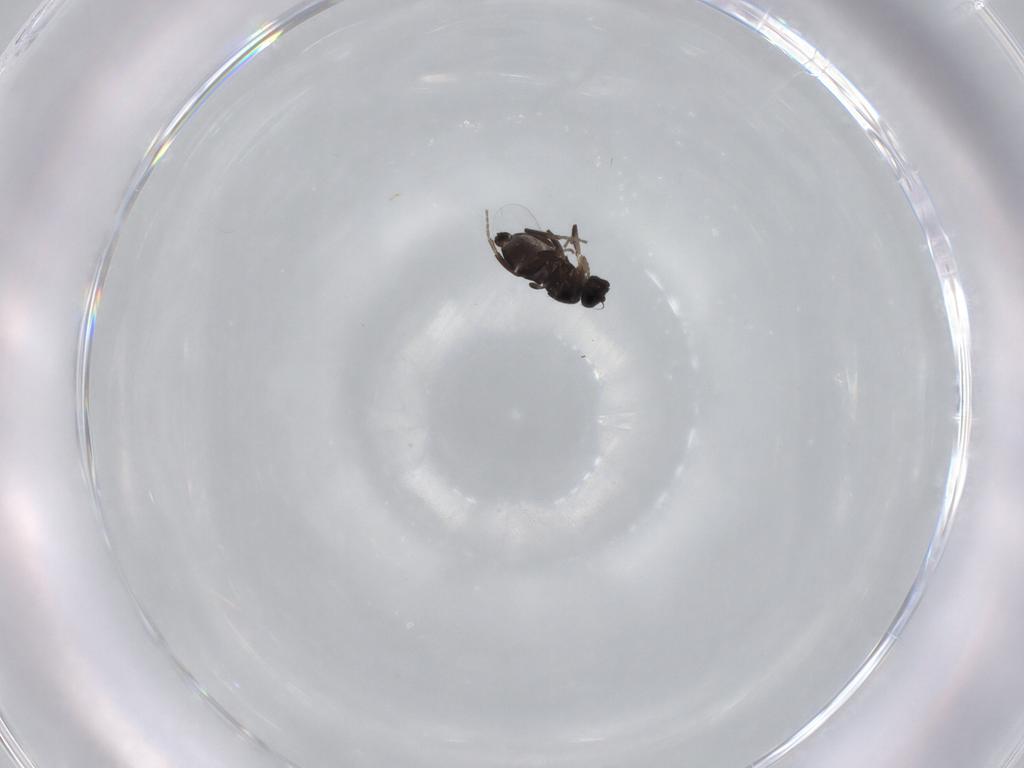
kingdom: Animalia
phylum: Arthropoda
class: Insecta
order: Diptera
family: Phoridae
